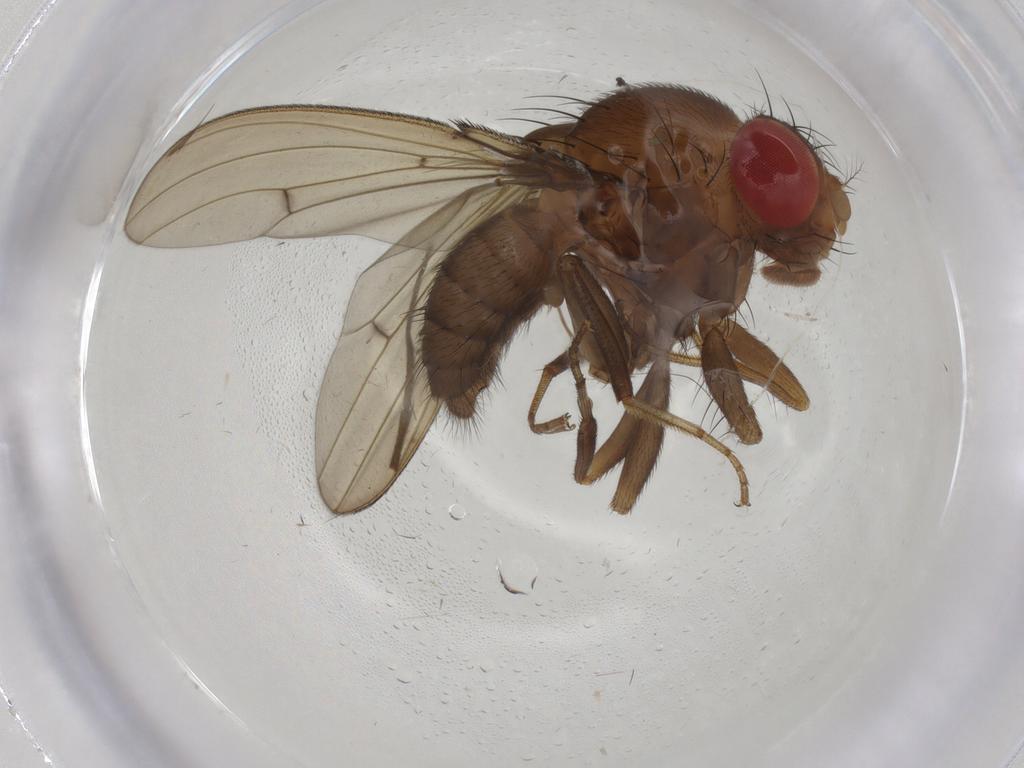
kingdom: Animalia
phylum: Arthropoda
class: Insecta
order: Diptera
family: Drosophilidae
